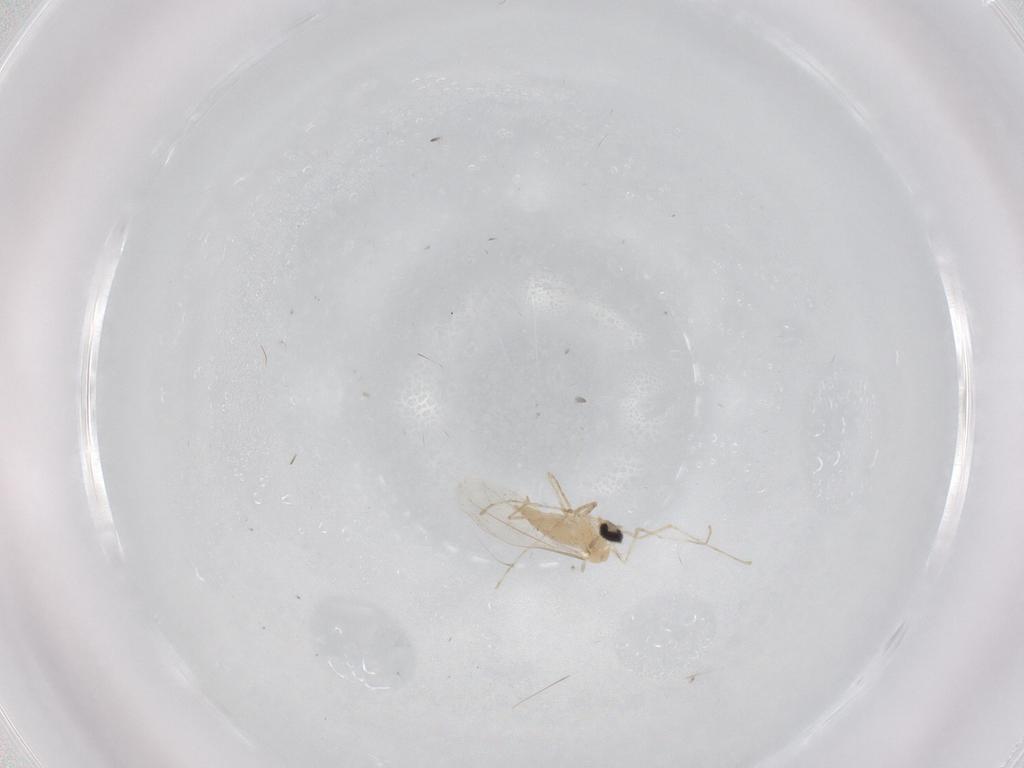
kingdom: Animalia
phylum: Arthropoda
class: Insecta
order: Diptera
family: Cecidomyiidae
